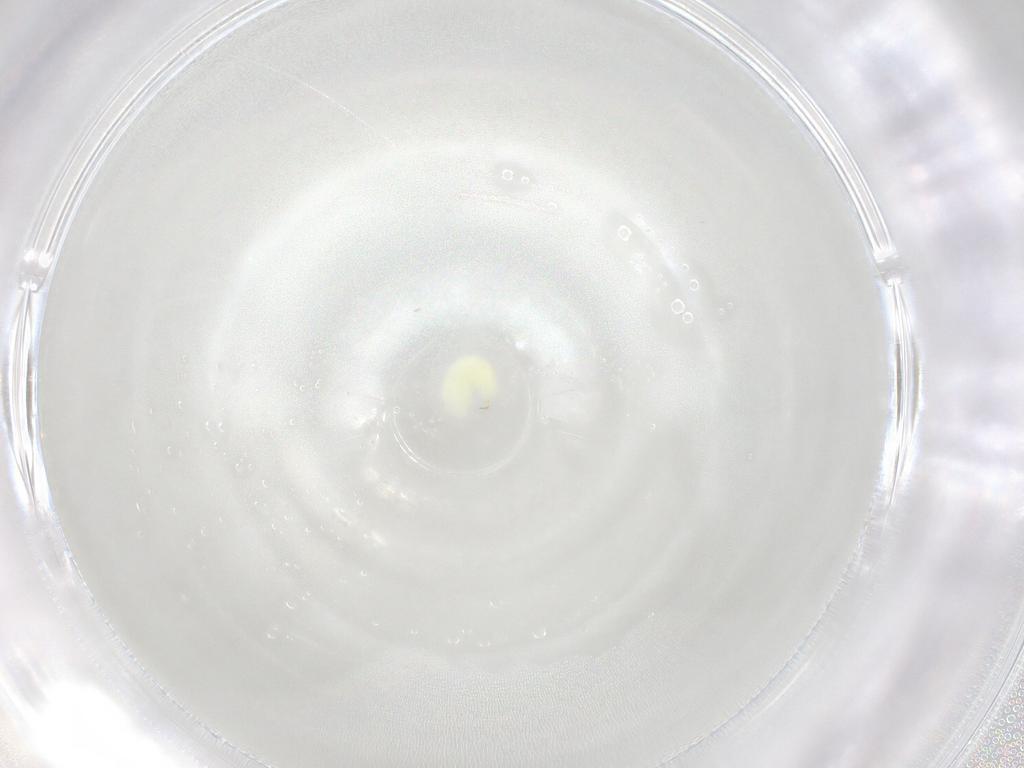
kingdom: Animalia
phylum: Arthropoda
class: Insecta
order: Hymenoptera
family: Dryinidae
